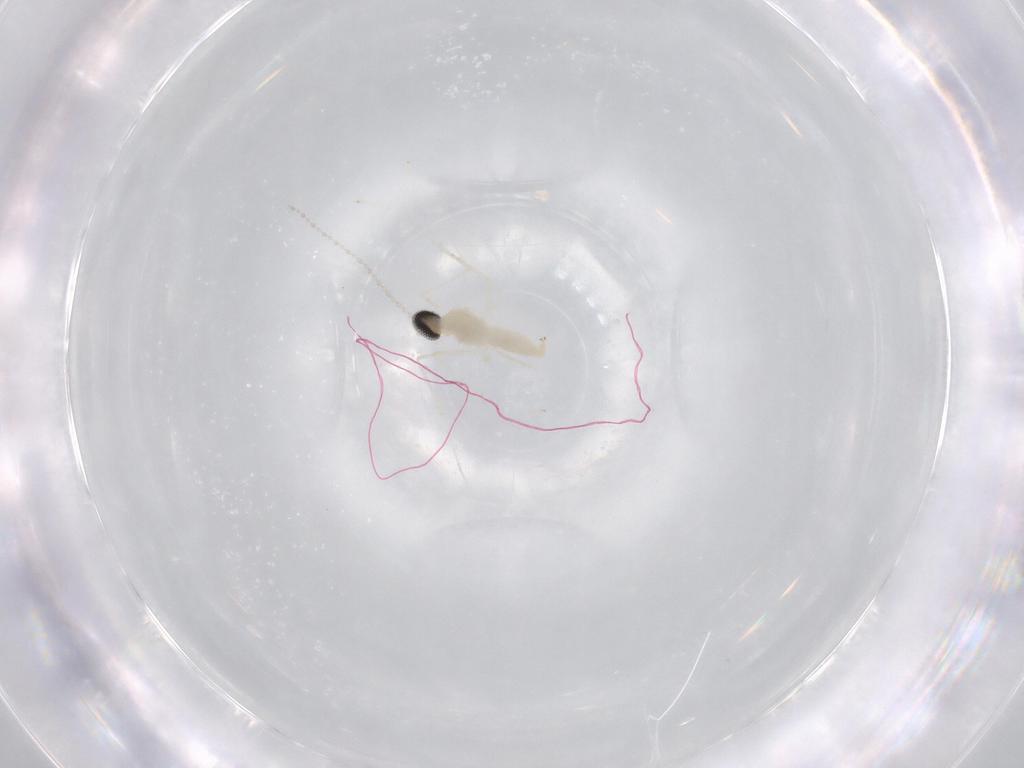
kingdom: Animalia
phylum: Arthropoda
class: Insecta
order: Diptera
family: Cecidomyiidae
